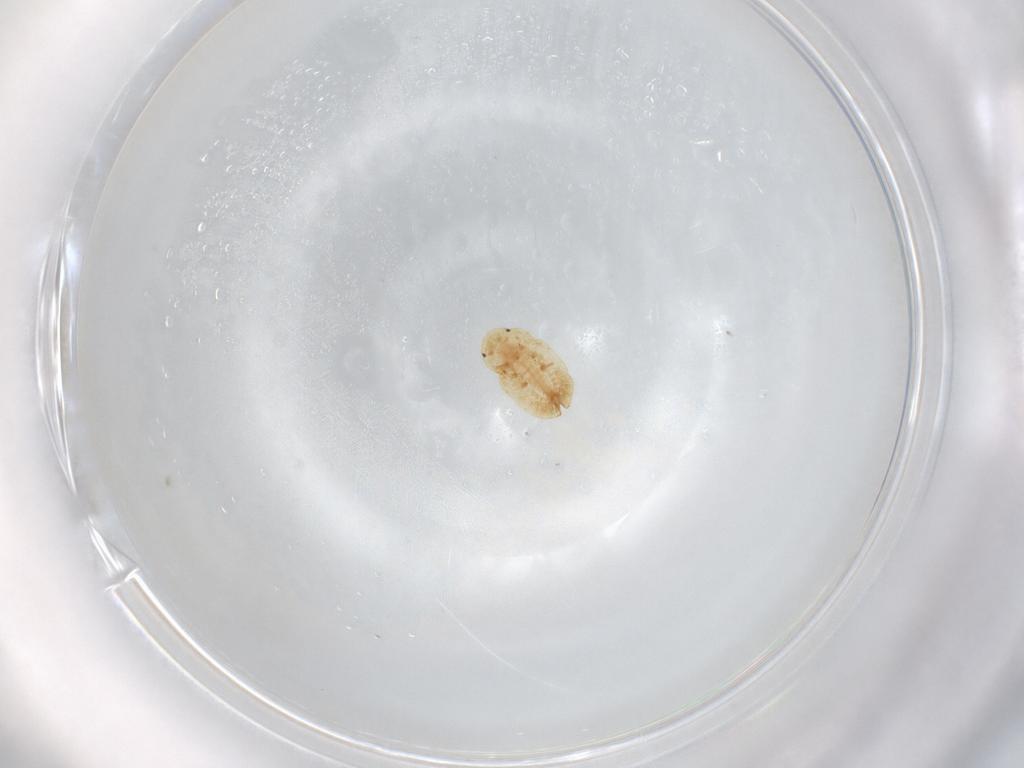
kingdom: Animalia
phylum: Arthropoda
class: Insecta
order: Hemiptera
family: Aleyrodidae
